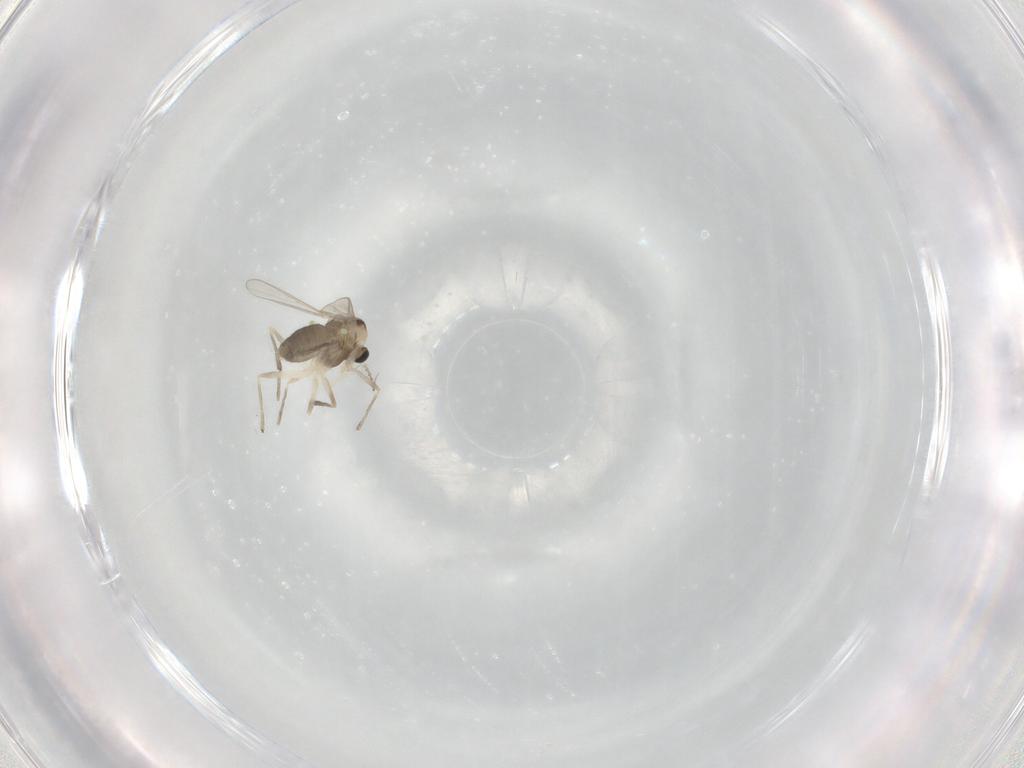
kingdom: Animalia
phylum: Arthropoda
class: Insecta
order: Diptera
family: Chironomidae
